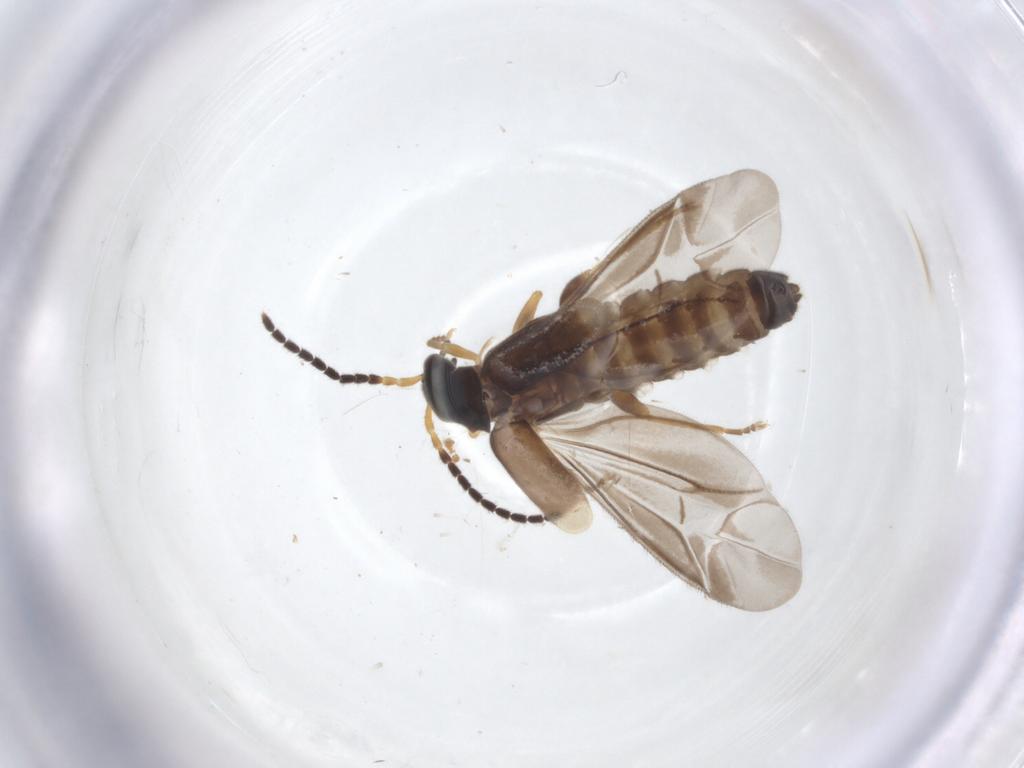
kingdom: Animalia
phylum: Arthropoda
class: Insecta
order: Coleoptera
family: Cantharidae
